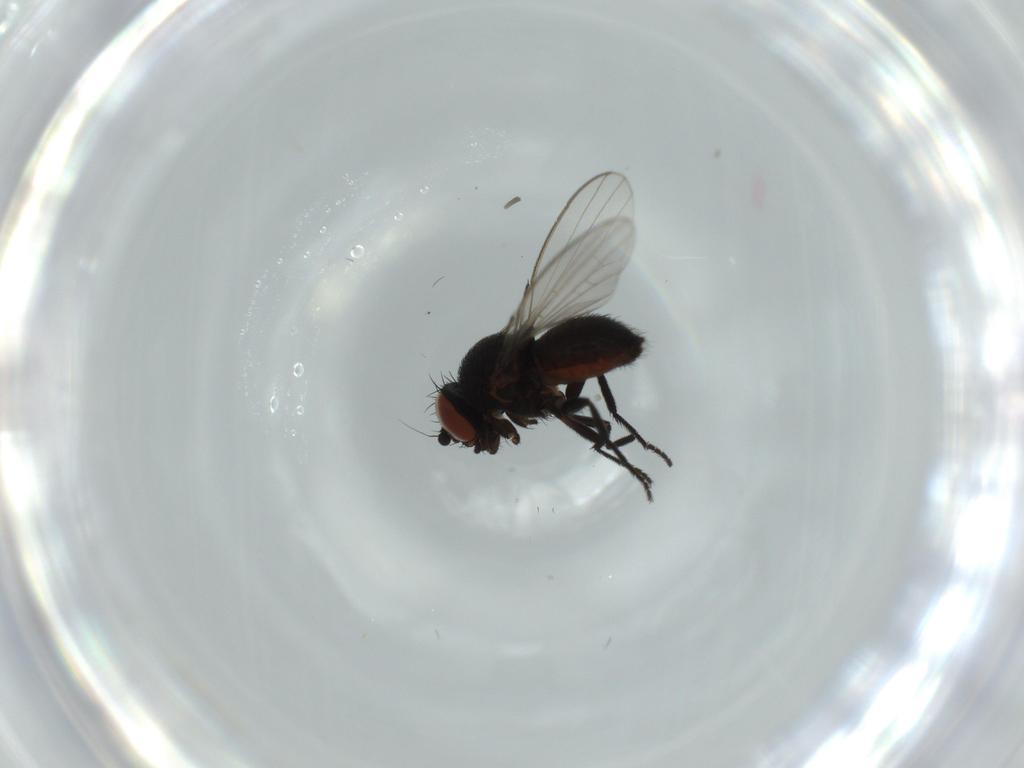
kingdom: Animalia
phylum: Arthropoda
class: Insecta
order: Diptera
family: Milichiidae
